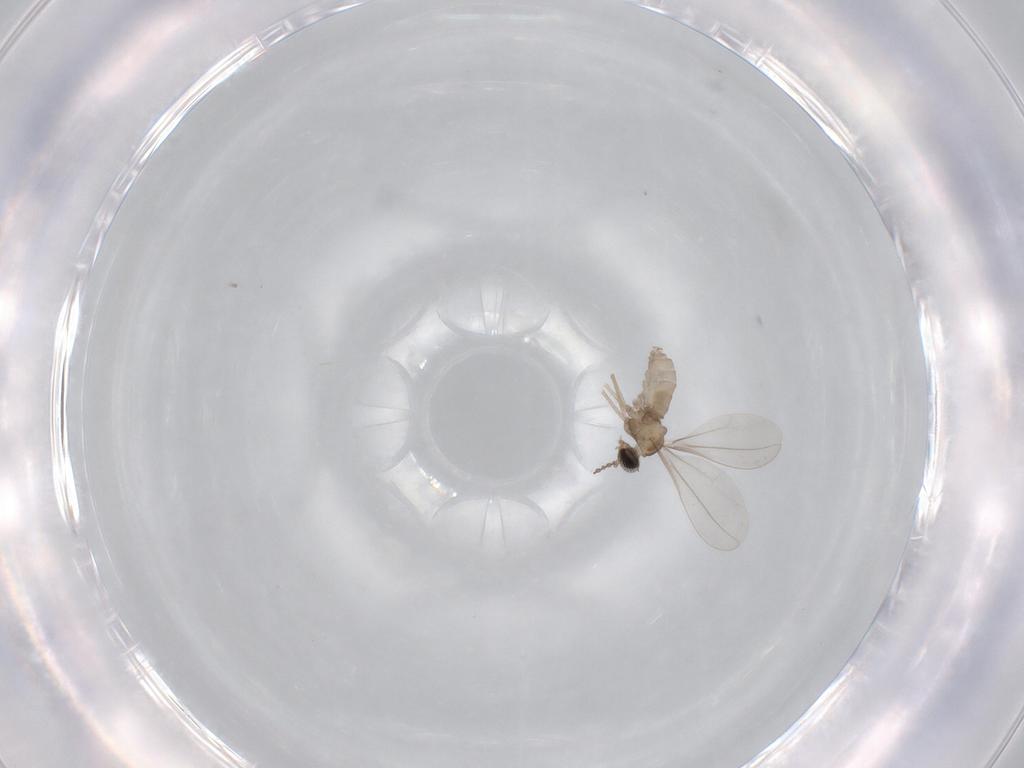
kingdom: Animalia
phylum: Arthropoda
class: Insecta
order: Diptera
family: Cecidomyiidae
